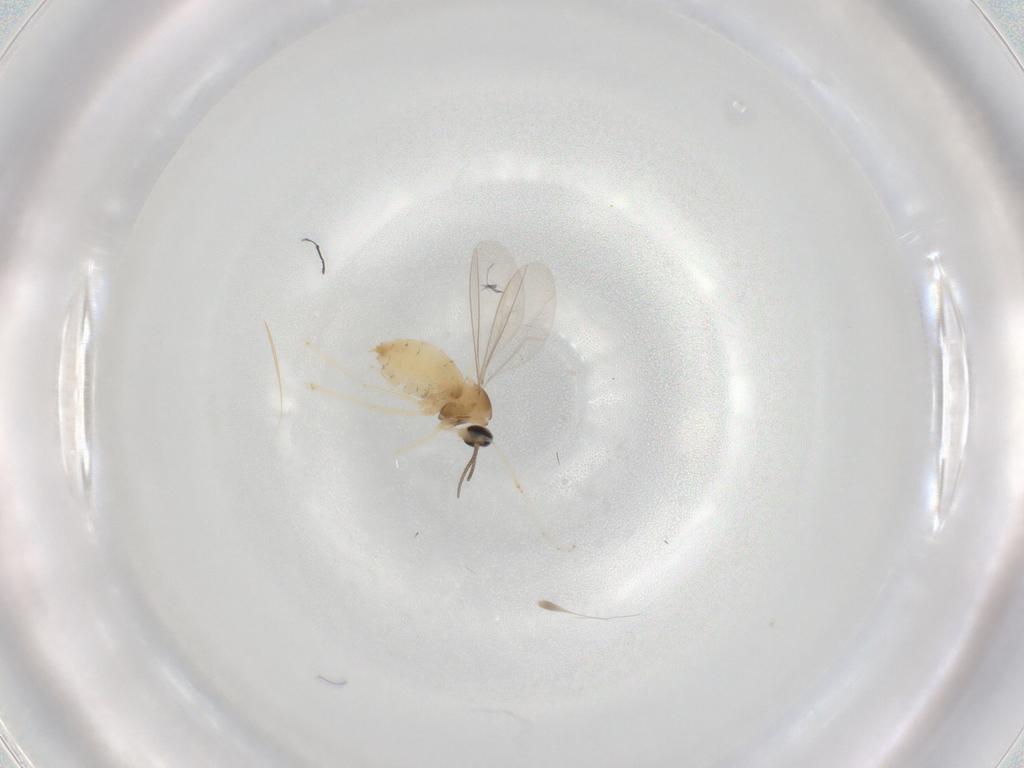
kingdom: Animalia
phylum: Arthropoda
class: Insecta
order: Diptera
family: Cecidomyiidae
